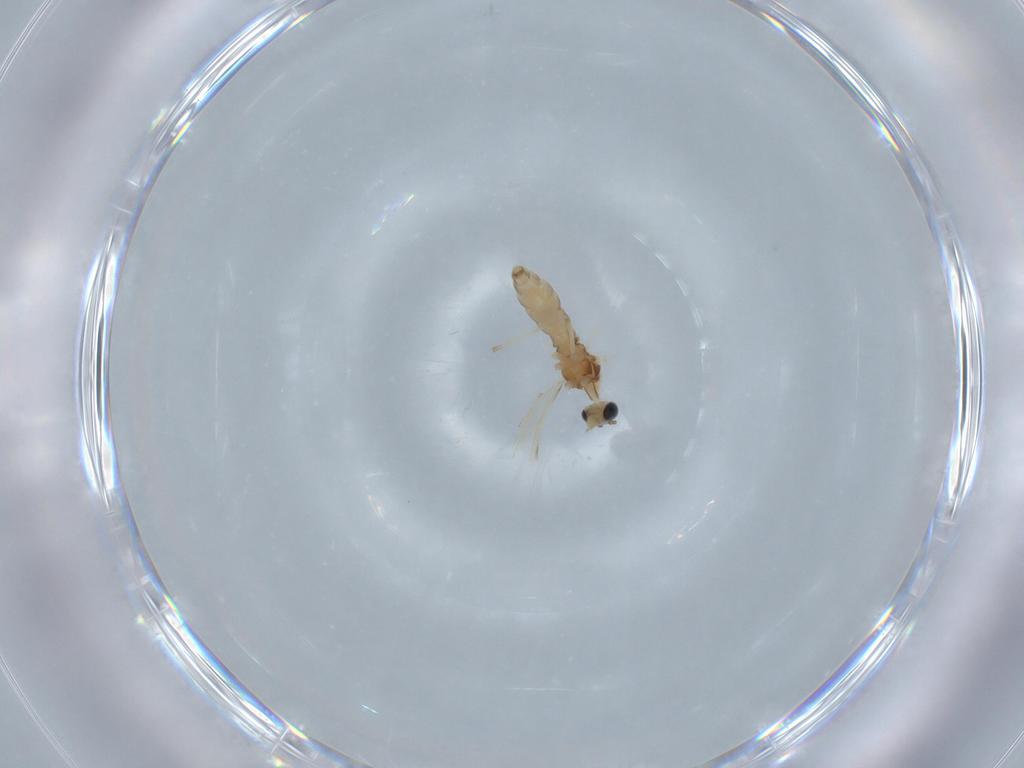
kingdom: Animalia
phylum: Arthropoda
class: Insecta
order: Diptera
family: Cecidomyiidae
